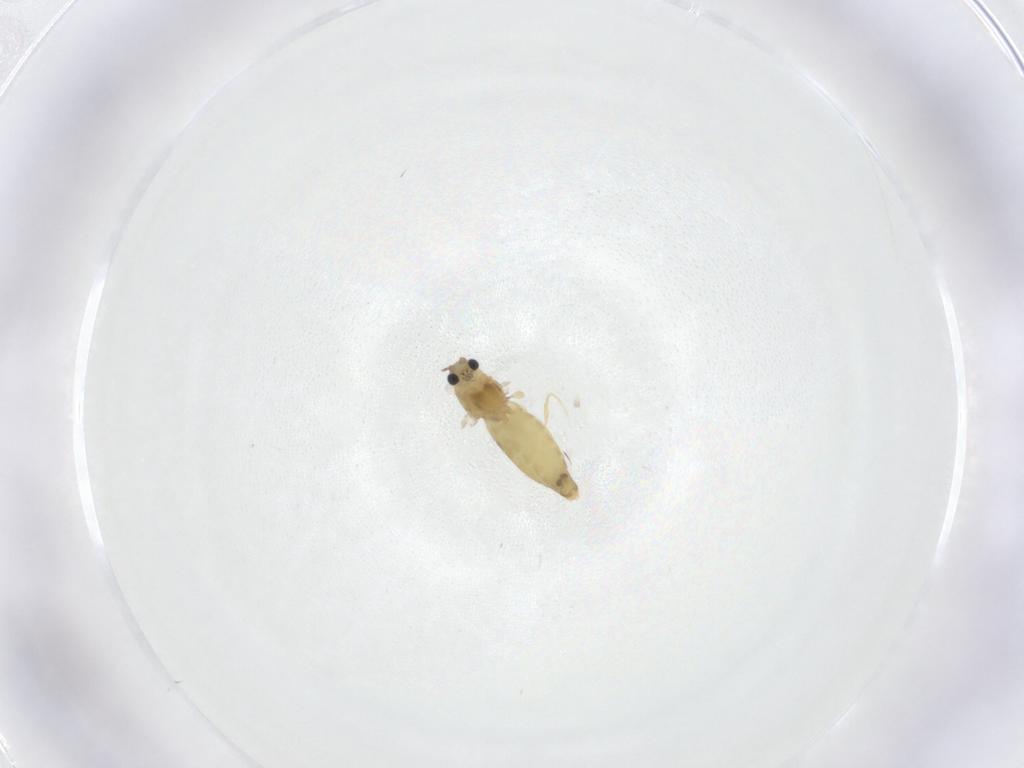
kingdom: Animalia
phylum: Arthropoda
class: Insecta
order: Diptera
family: Chironomidae
